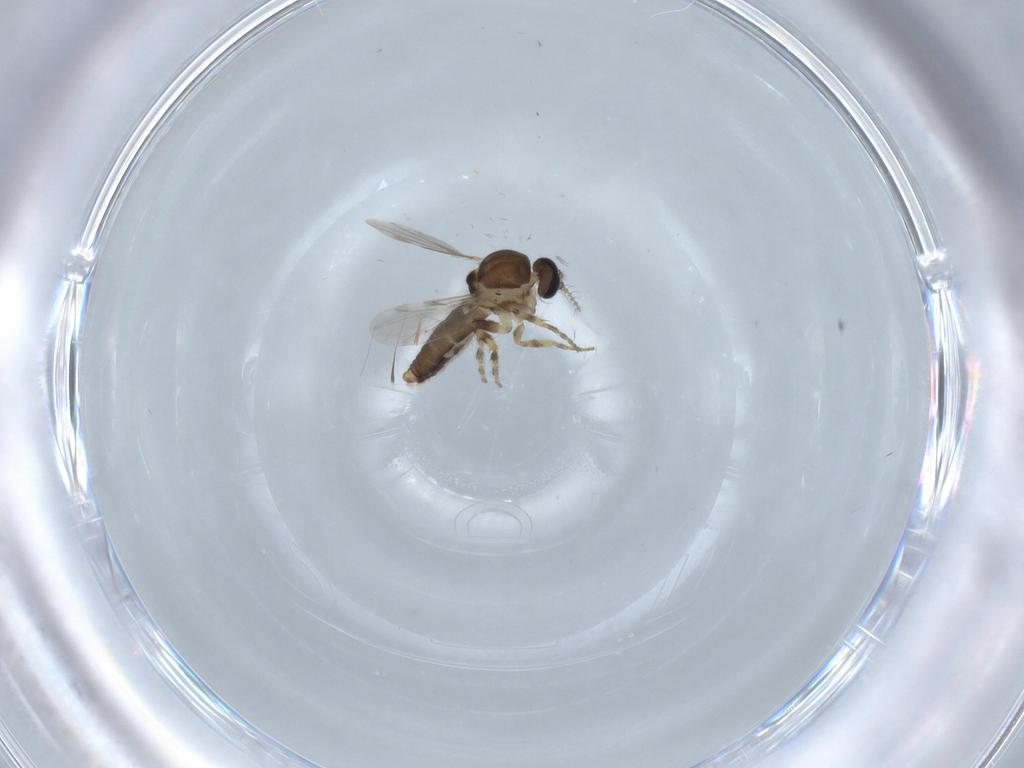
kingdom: Animalia
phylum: Arthropoda
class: Insecta
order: Diptera
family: Ceratopogonidae
